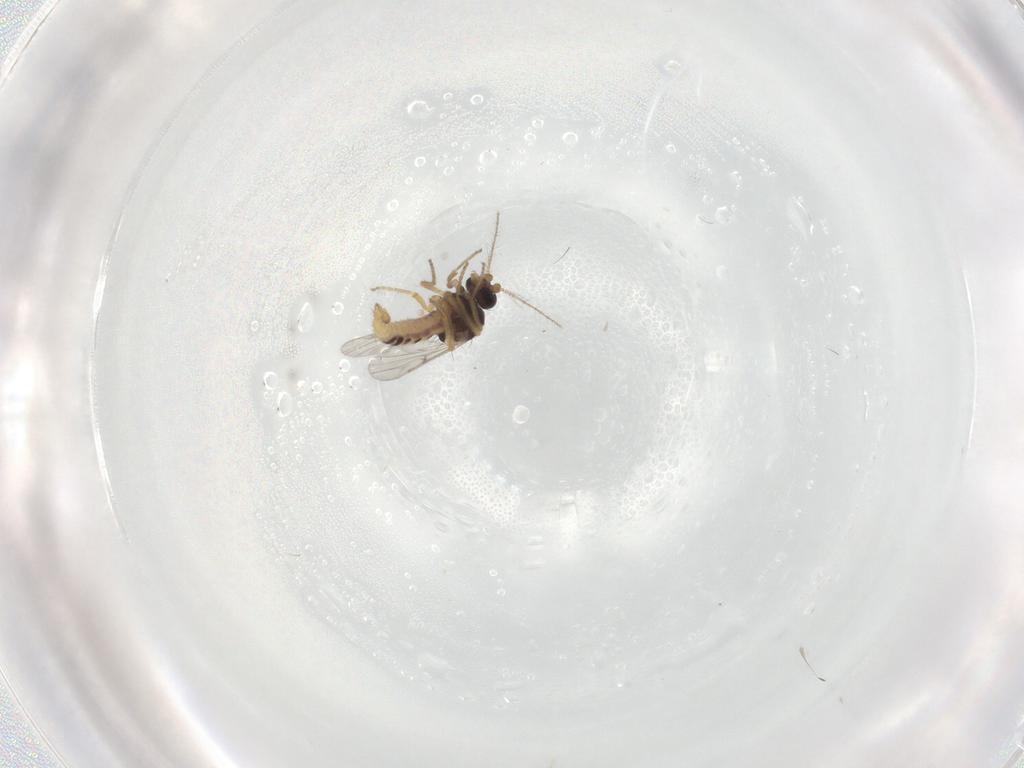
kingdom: Animalia
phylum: Arthropoda
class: Insecta
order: Diptera
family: Ceratopogonidae
